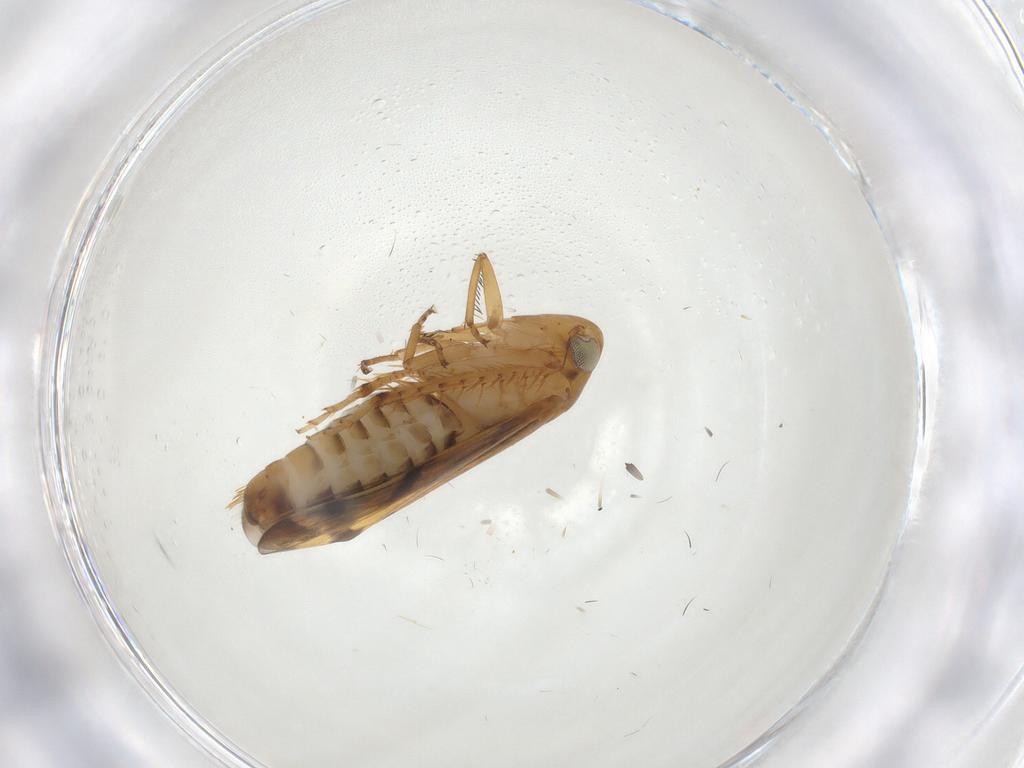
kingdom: Animalia
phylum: Arthropoda
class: Insecta
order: Hemiptera
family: Cicadellidae
